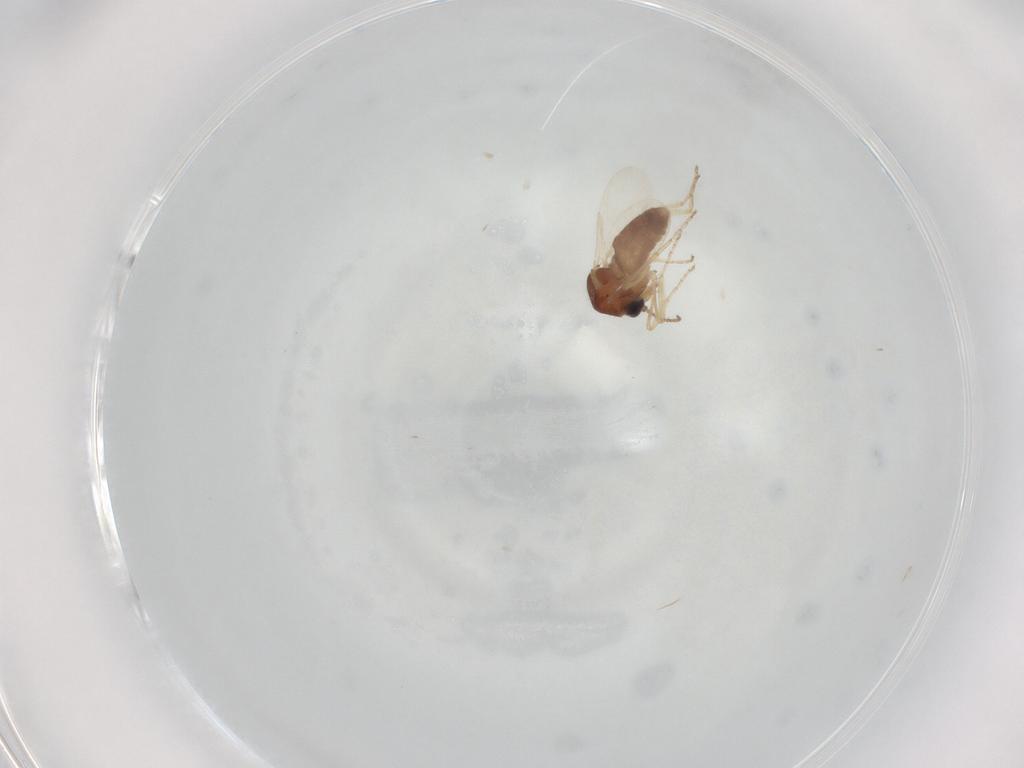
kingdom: Animalia
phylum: Arthropoda
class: Insecta
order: Diptera
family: Ceratopogonidae
